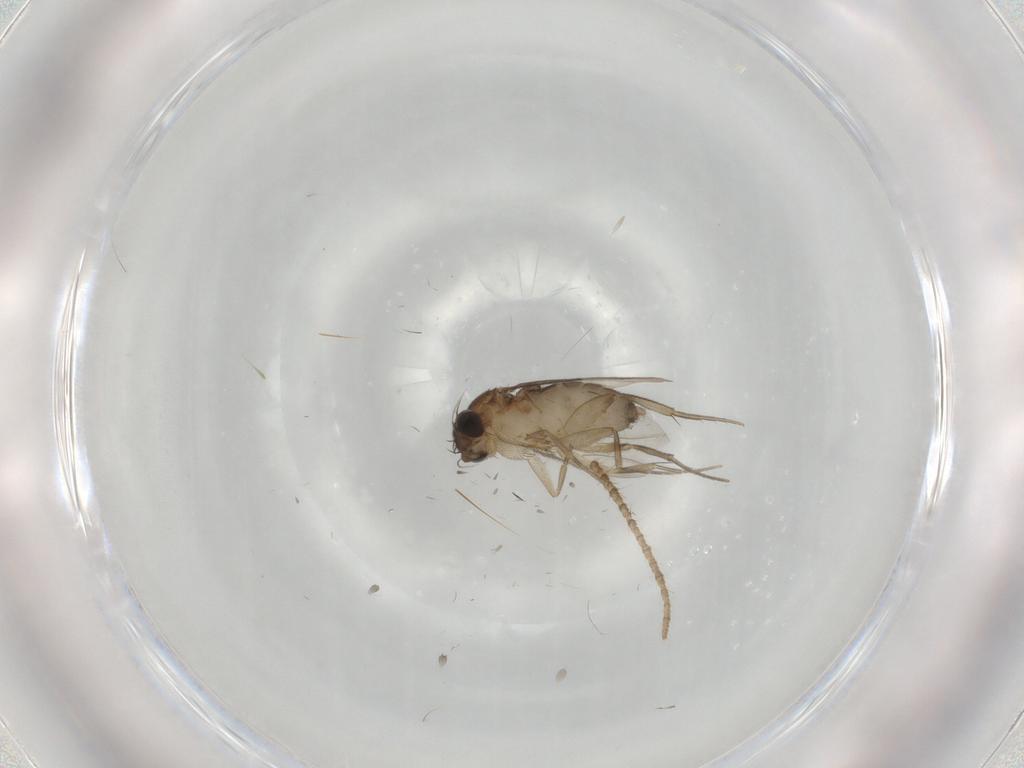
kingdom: Animalia
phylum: Arthropoda
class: Insecta
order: Diptera
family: Phoridae
